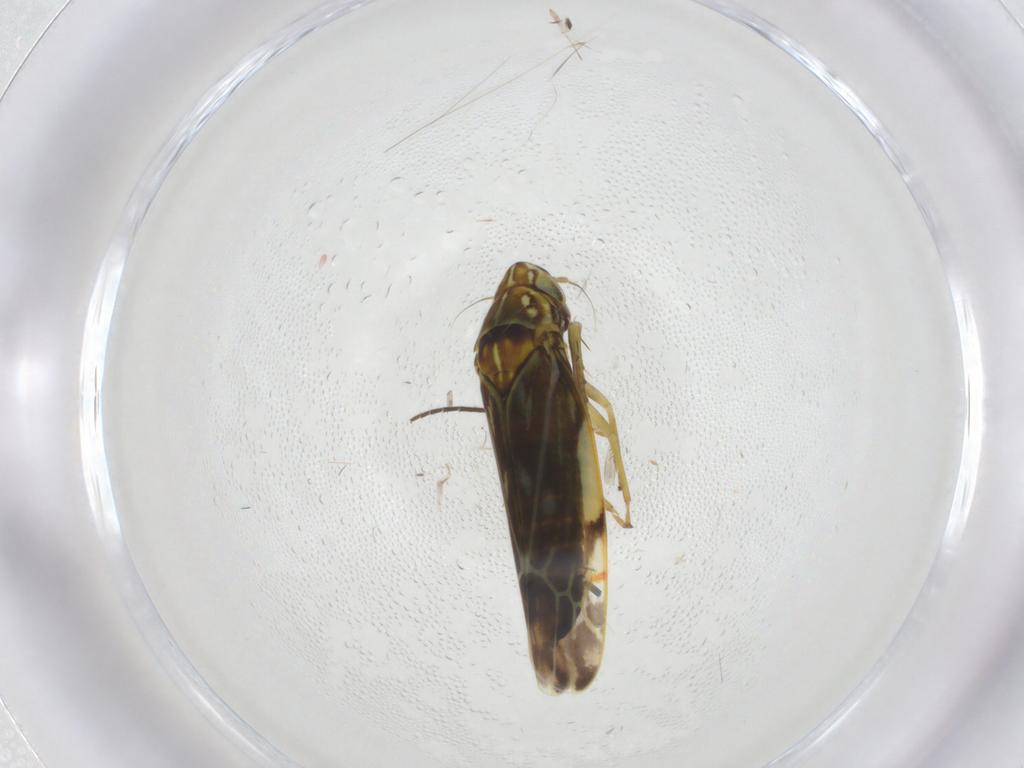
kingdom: Animalia
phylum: Arthropoda
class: Insecta
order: Hemiptera
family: Cicadellidae
